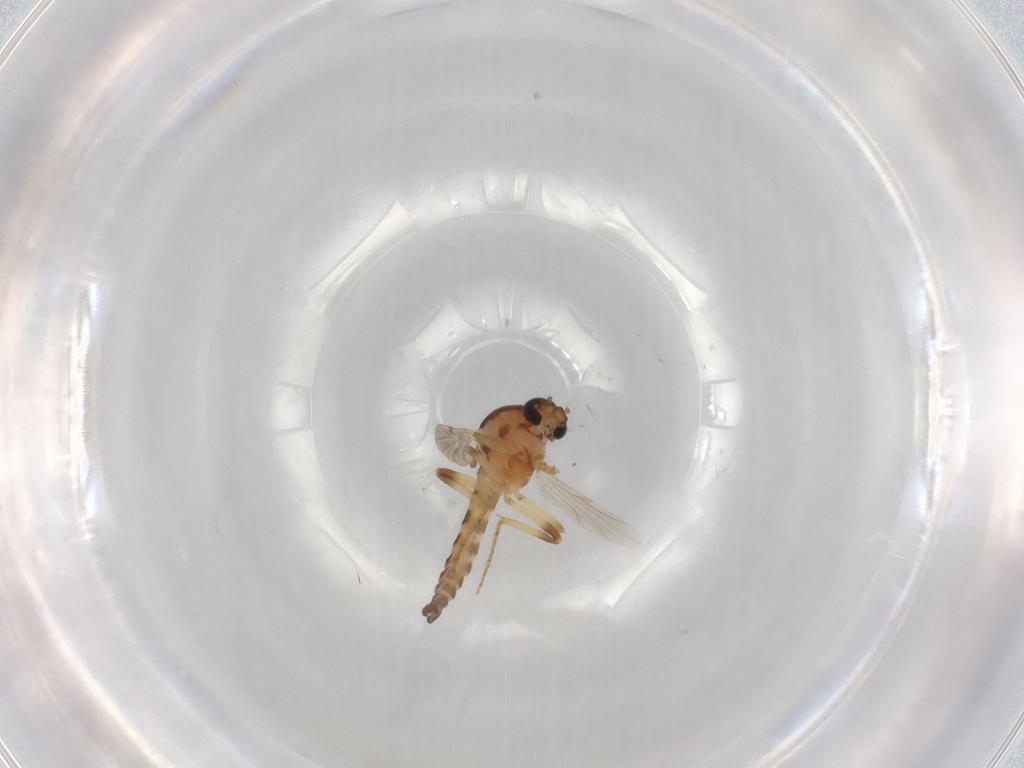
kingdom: Animalia
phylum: Arthropoda
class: Insecta
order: Diptera
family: Ceratopogonidae
